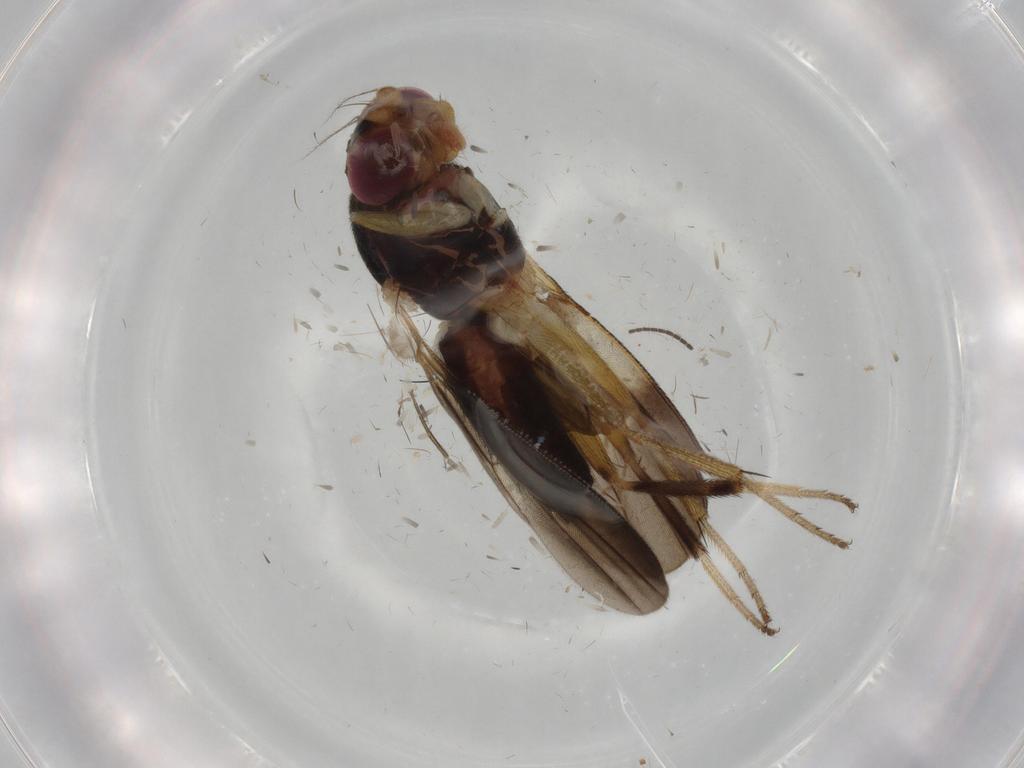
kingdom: Animalia
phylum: Arthropoda
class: Insecta
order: Diptera
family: Clusiidae
